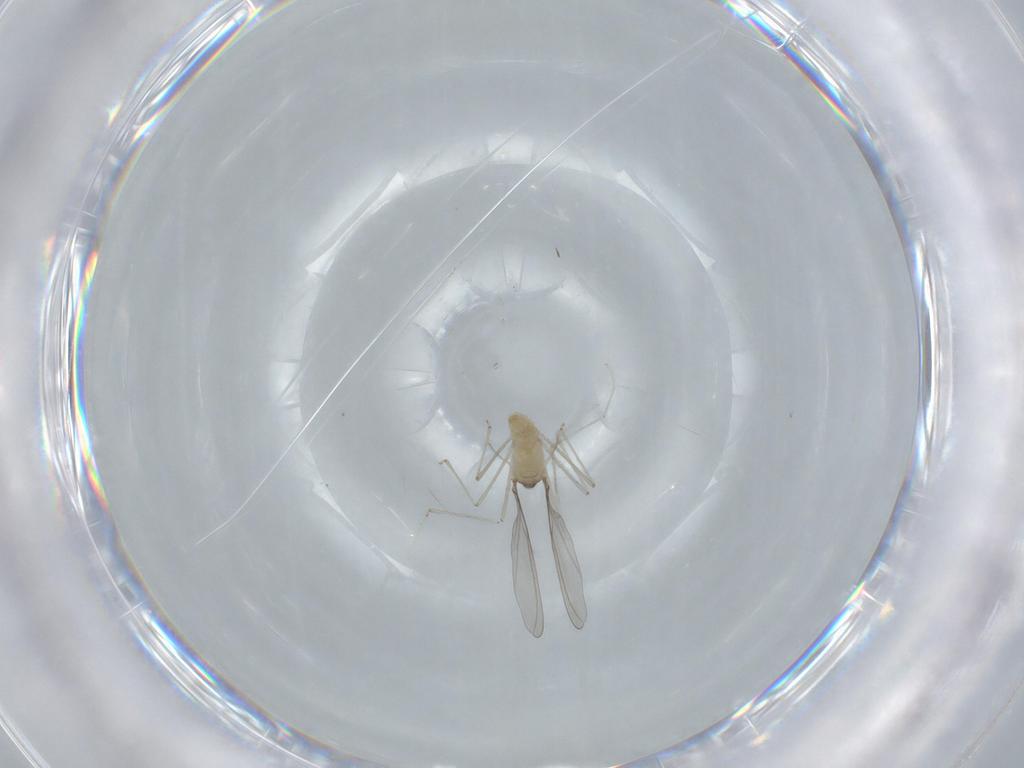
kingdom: Animalia
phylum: Arthropoda
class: Insecta
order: Diptera
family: Cecidomyiidae
